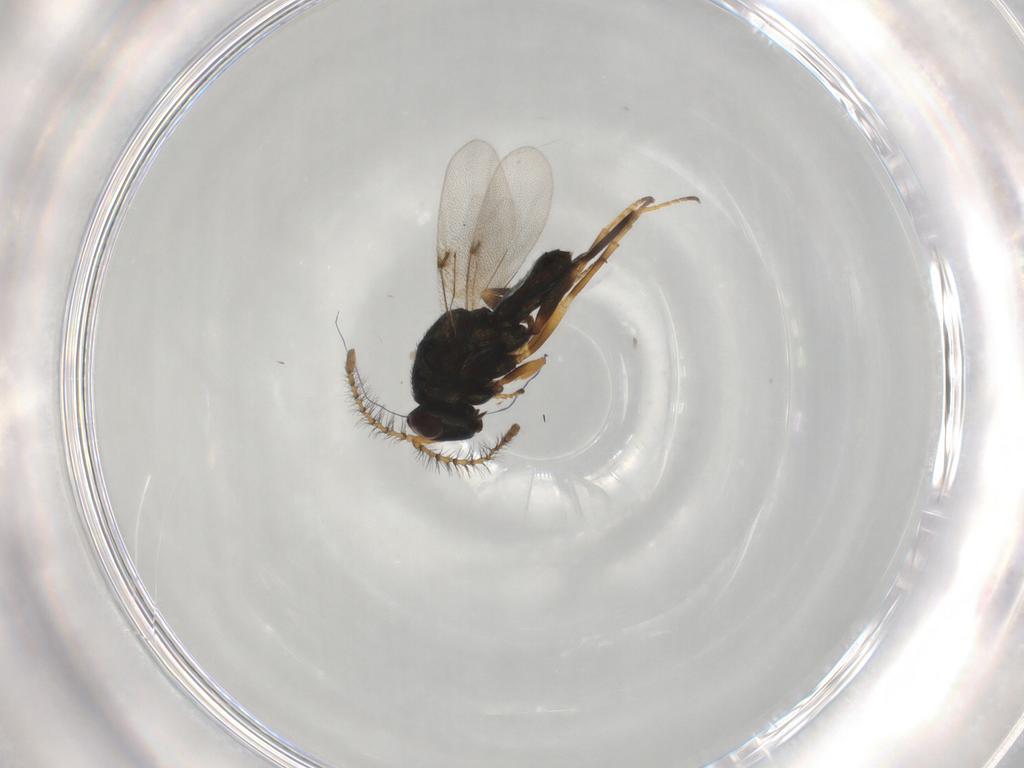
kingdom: Animalia
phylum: Arthropoda
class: Insecta
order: Hymenoptera
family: Encyrtidae
